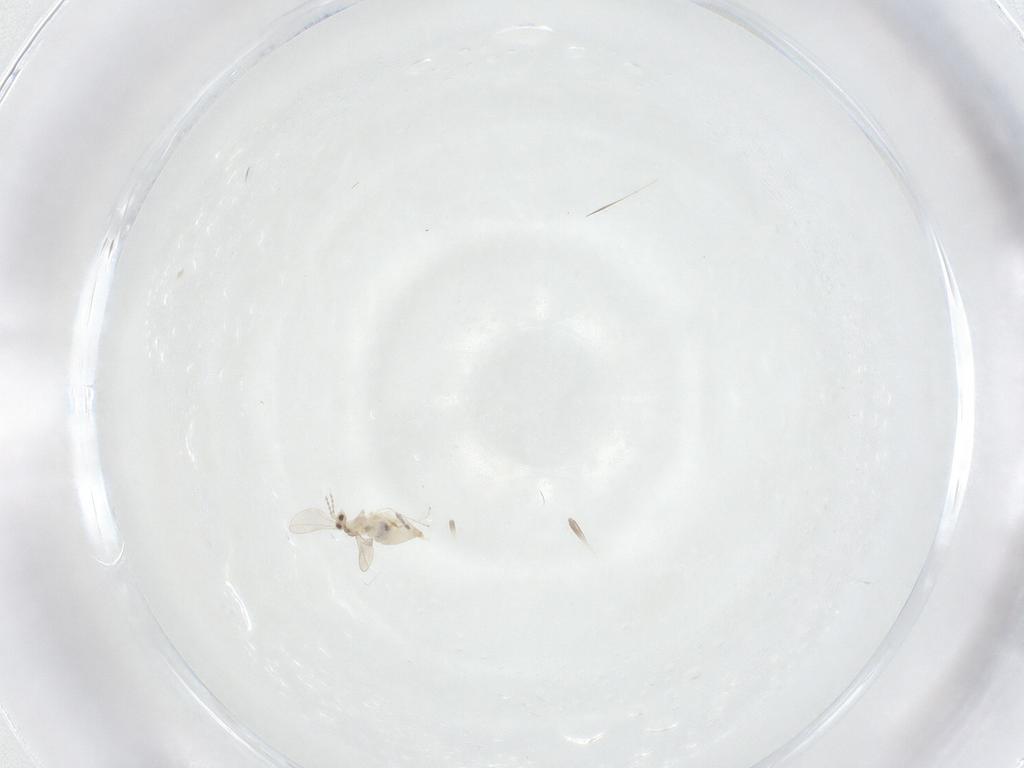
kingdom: Animalia
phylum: Arthropoda
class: Insecta
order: Diptera
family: Cecidomyiidae
